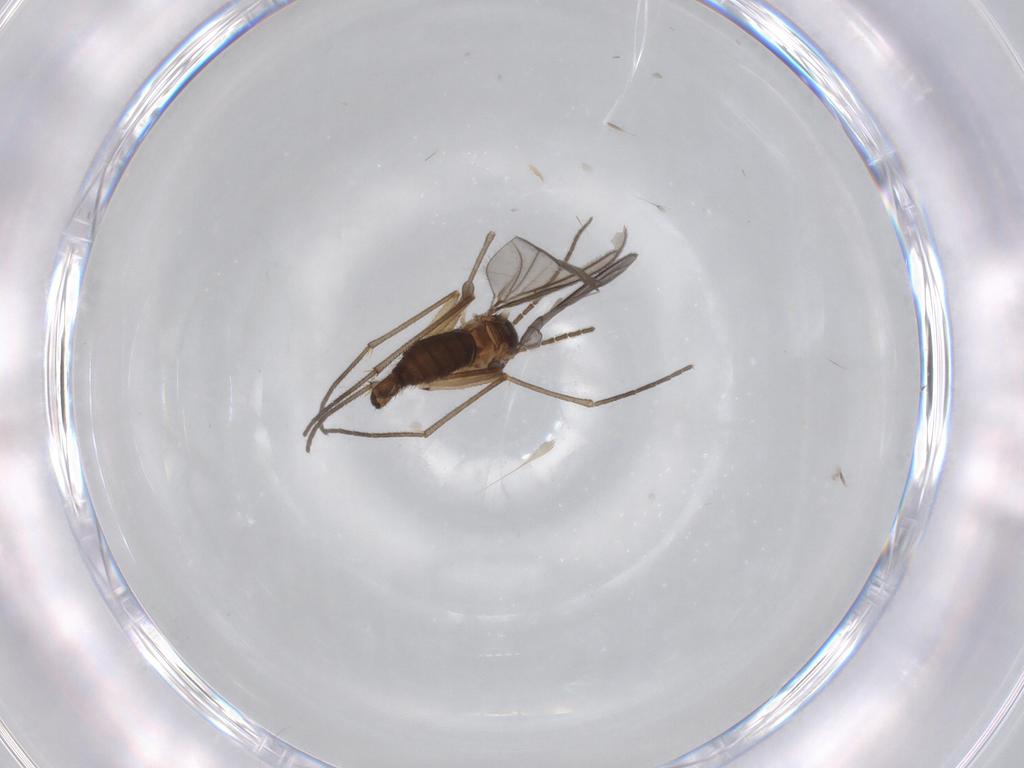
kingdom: Animalia
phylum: Arthropoda
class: Insecta
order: Diptera
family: Sciaridae
